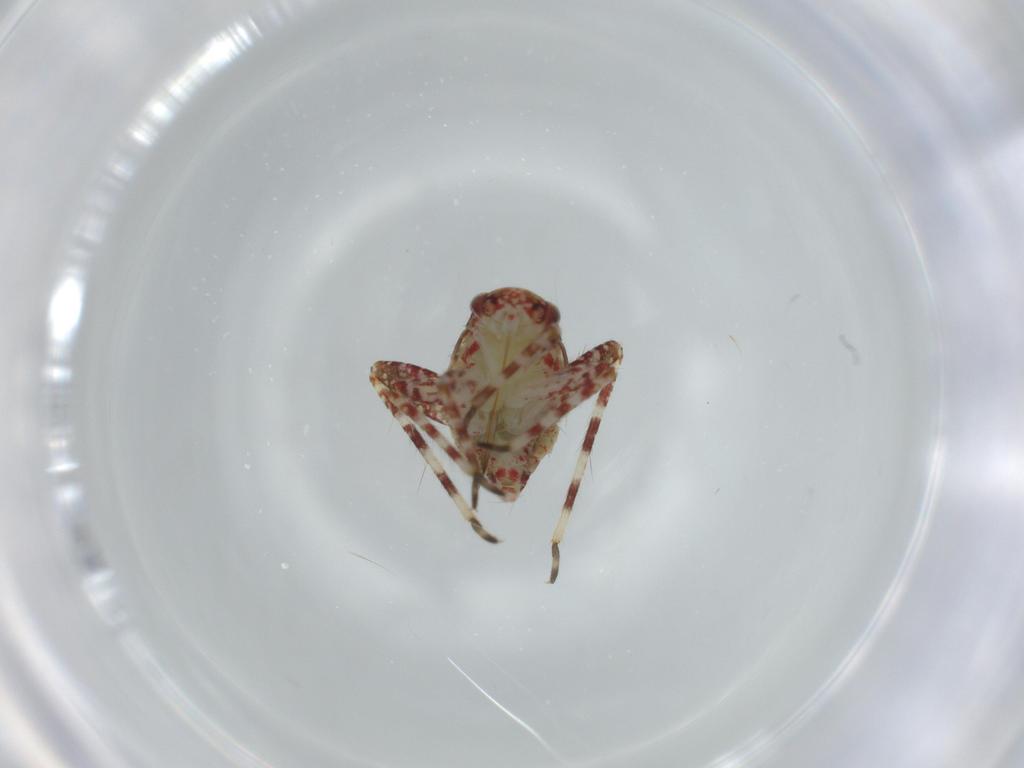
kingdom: Animalia
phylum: Arthropoda
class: Insecta
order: Hemiptera
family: Miridae
